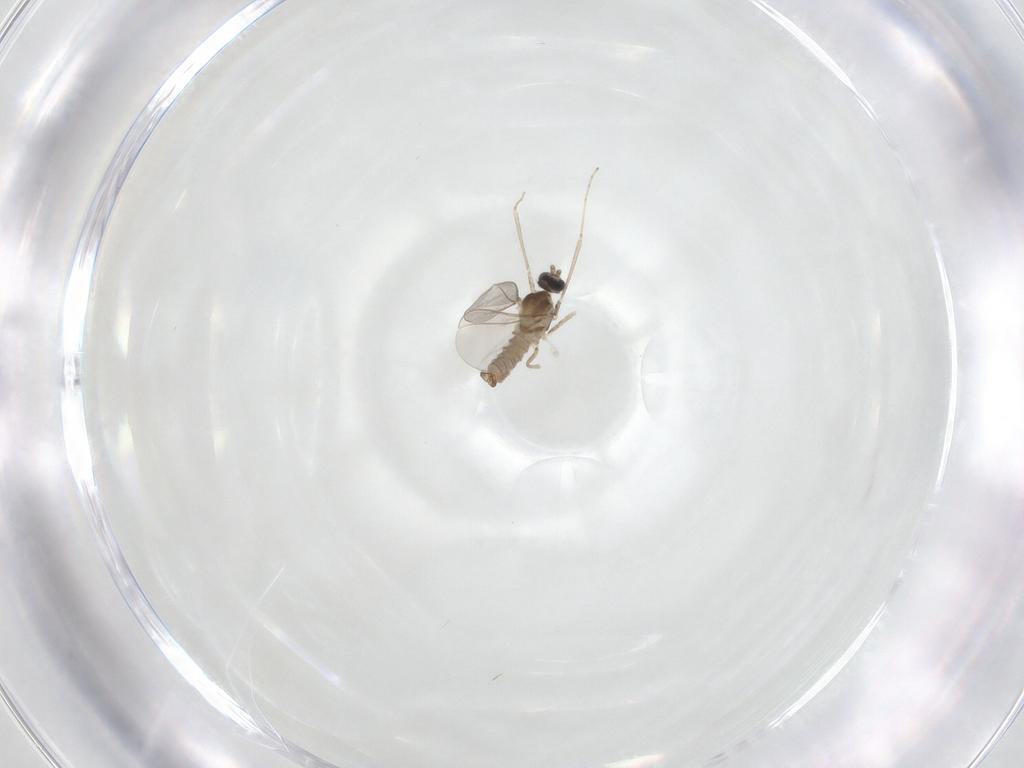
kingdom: Animalia
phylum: Arthropoda
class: Insecta
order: Diptera
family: Cecidomyiidae
